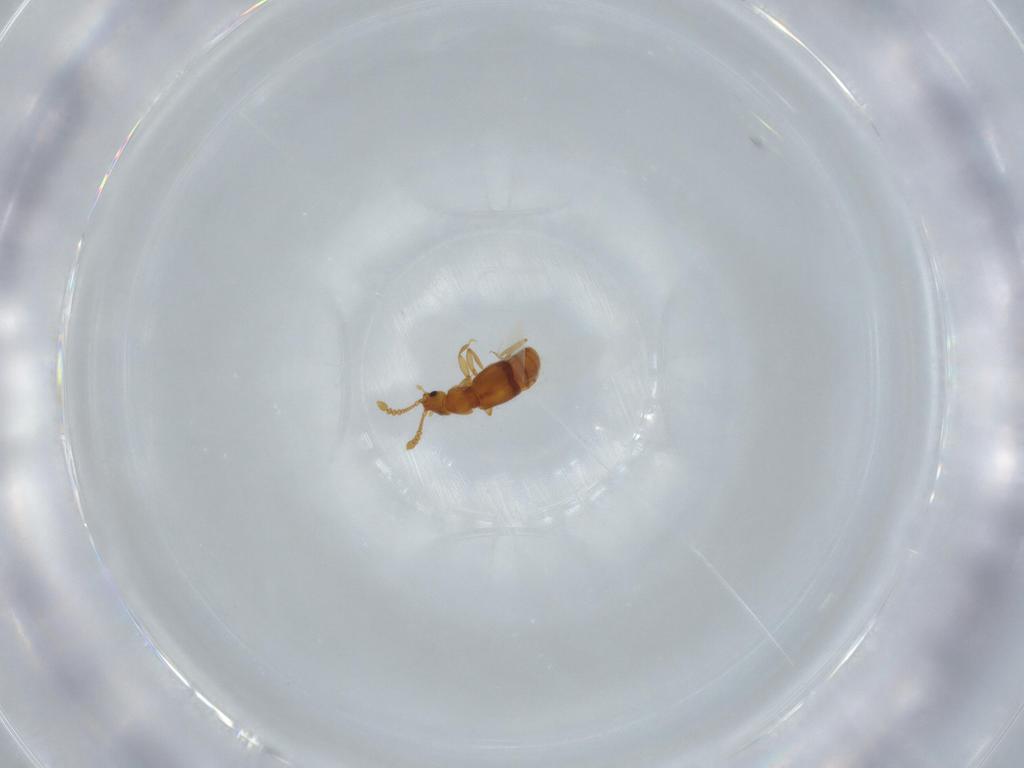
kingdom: Animalia
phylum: Arthropoda
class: Insecta
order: Coleoptera
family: Staphylinidae
